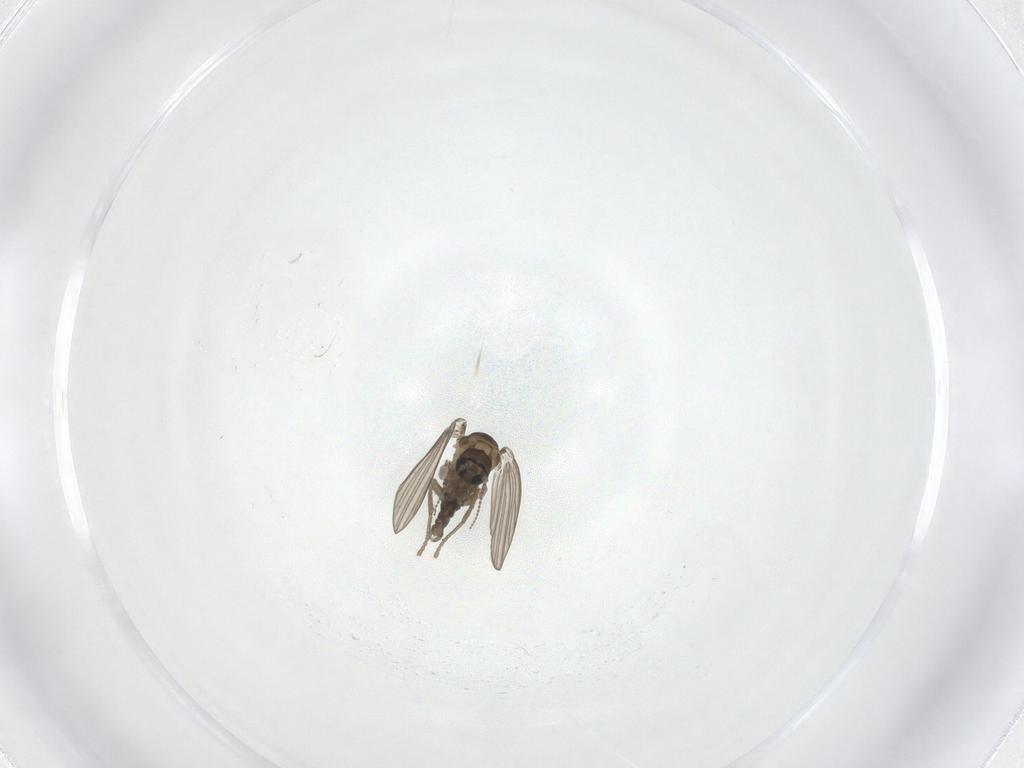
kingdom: Animalia
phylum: Arthropoda
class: Insecta
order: Diptera
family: Psychodidae
